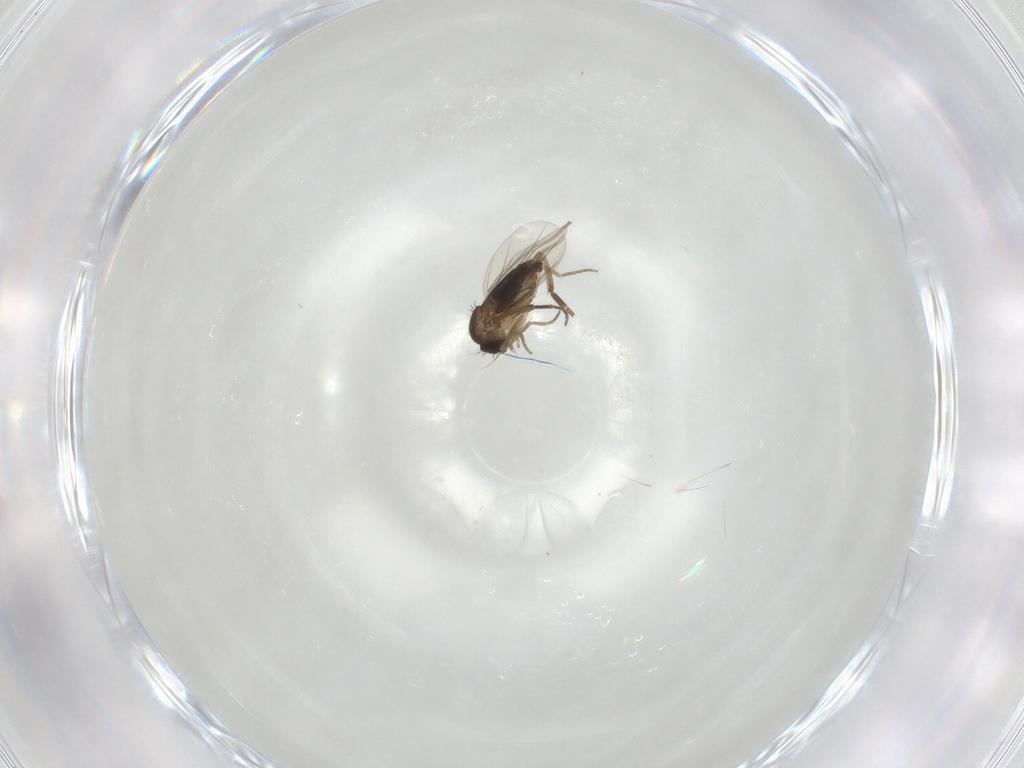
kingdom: Animalia
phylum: Arthropoda
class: Insecta
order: Diptera
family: Phoridae
